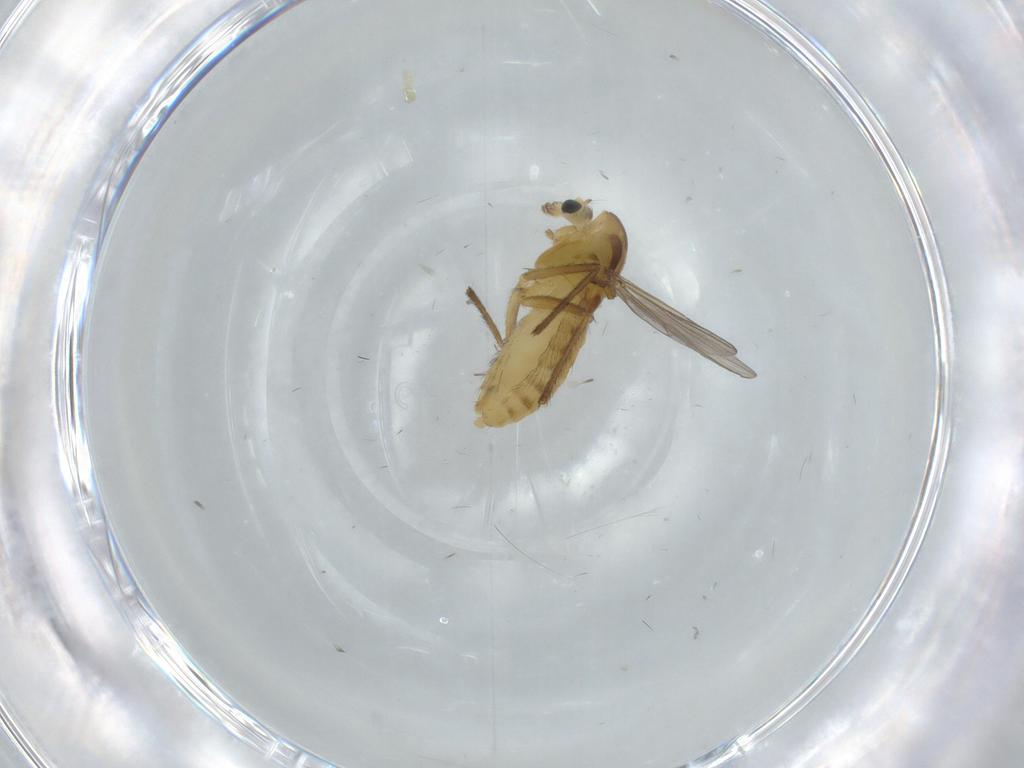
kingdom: Animalia
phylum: Arthropoda
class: Insecta
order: Diptera
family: Chironomidae
